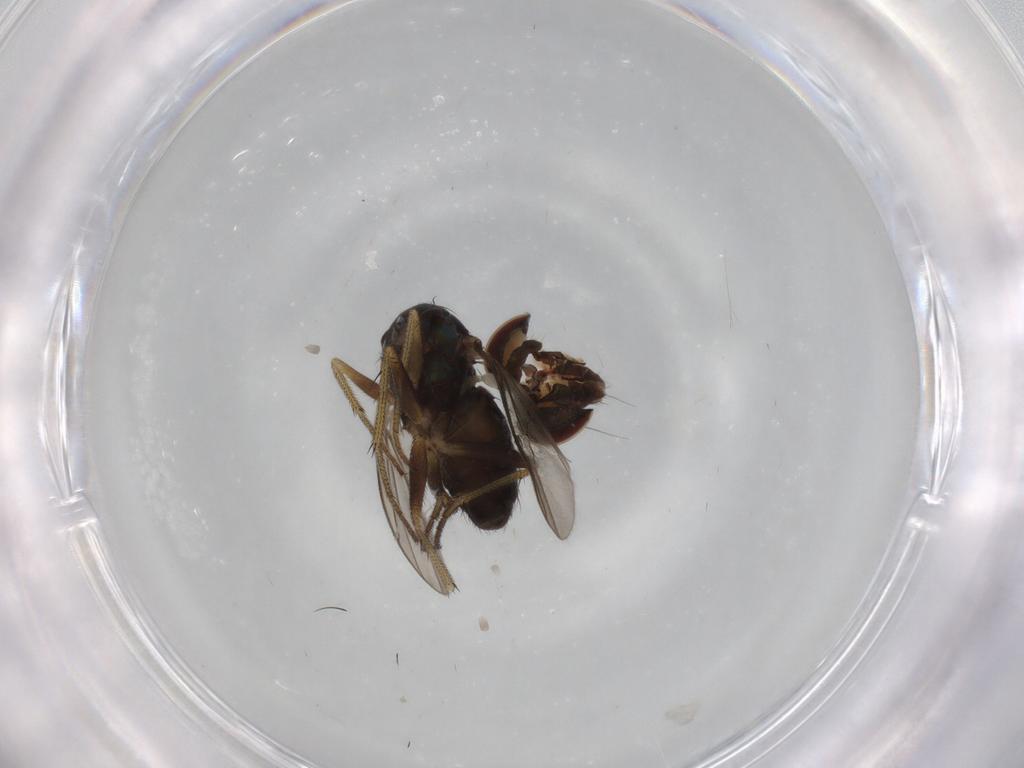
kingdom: Animalia
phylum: Arthropoda
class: Insecta
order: Diptera
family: Dolichopodidae
